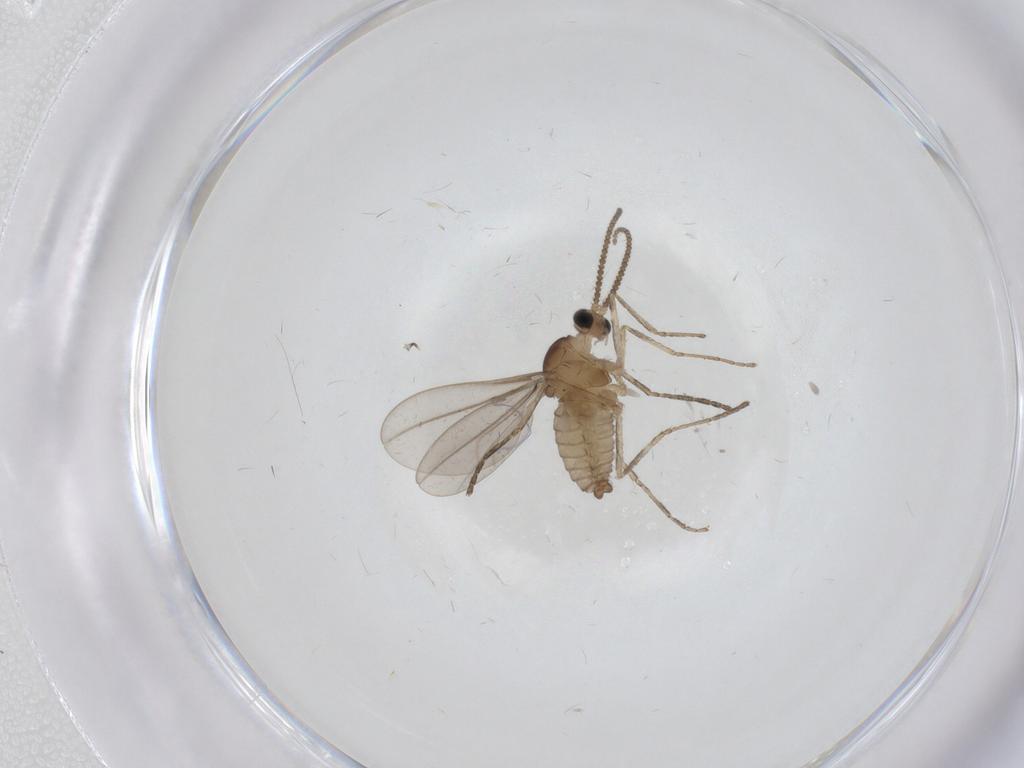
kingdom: Animalia
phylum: Arthropoda
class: Insecta
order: Diptera
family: Cecidomyiidae
